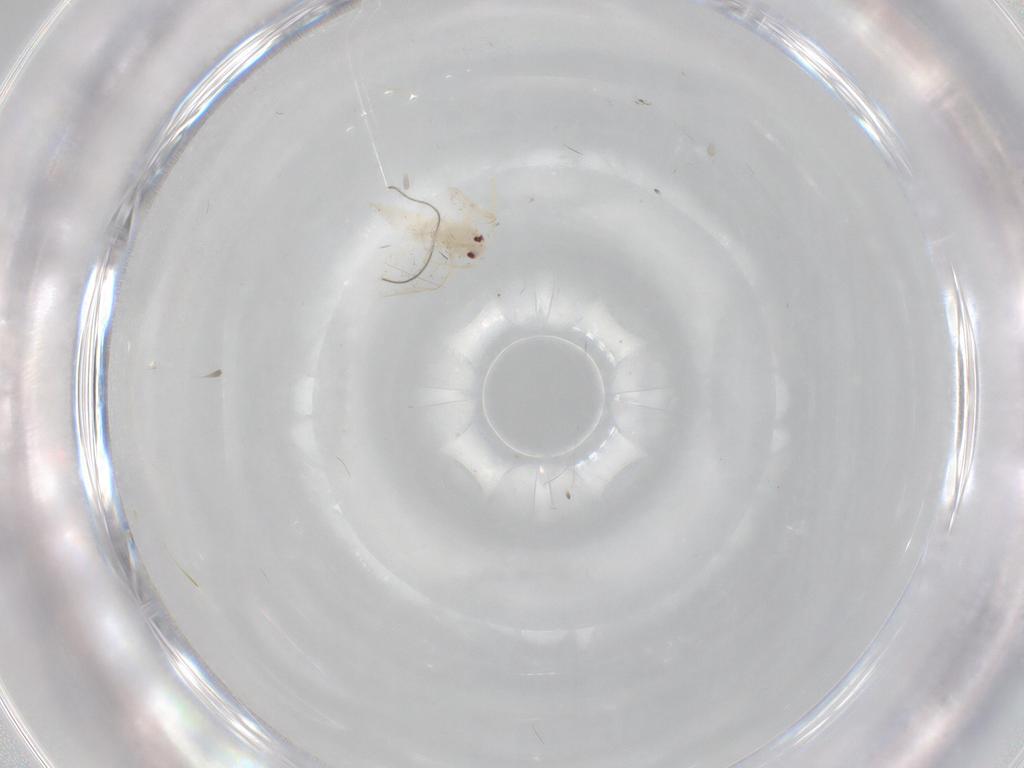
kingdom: Animalia
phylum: Arthropoda
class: Insecta
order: Hemiptera
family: Aleyrodidae
